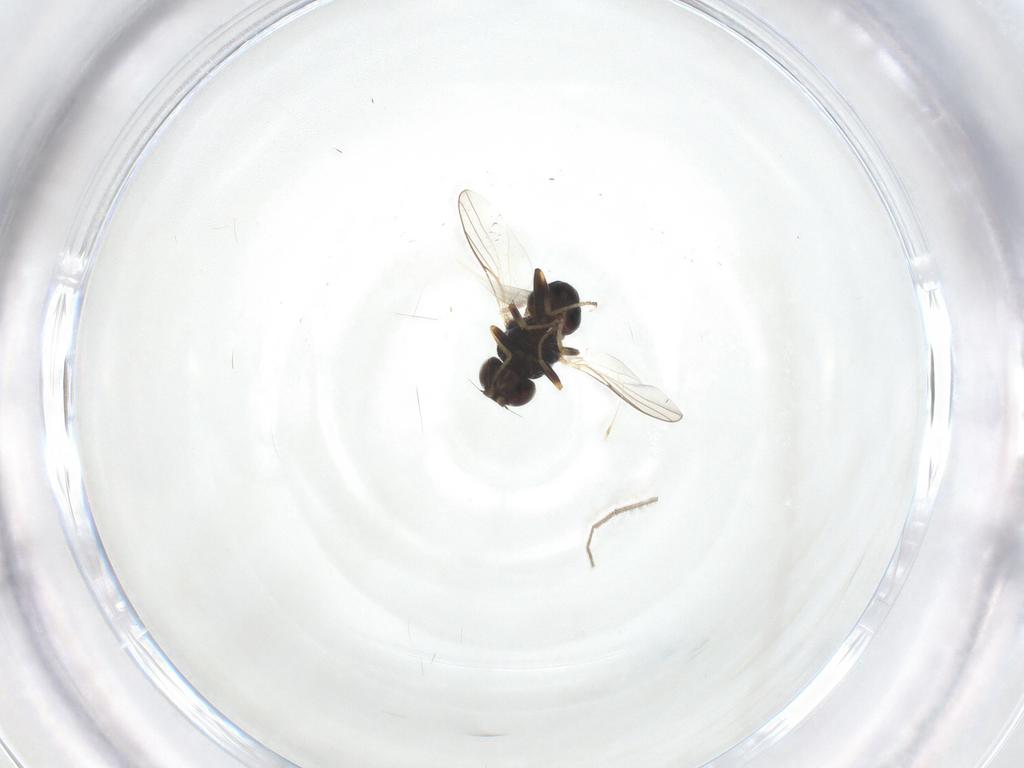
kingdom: Animalia
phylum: Arthropoda
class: Insecta
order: Diptera
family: Chloropidae
